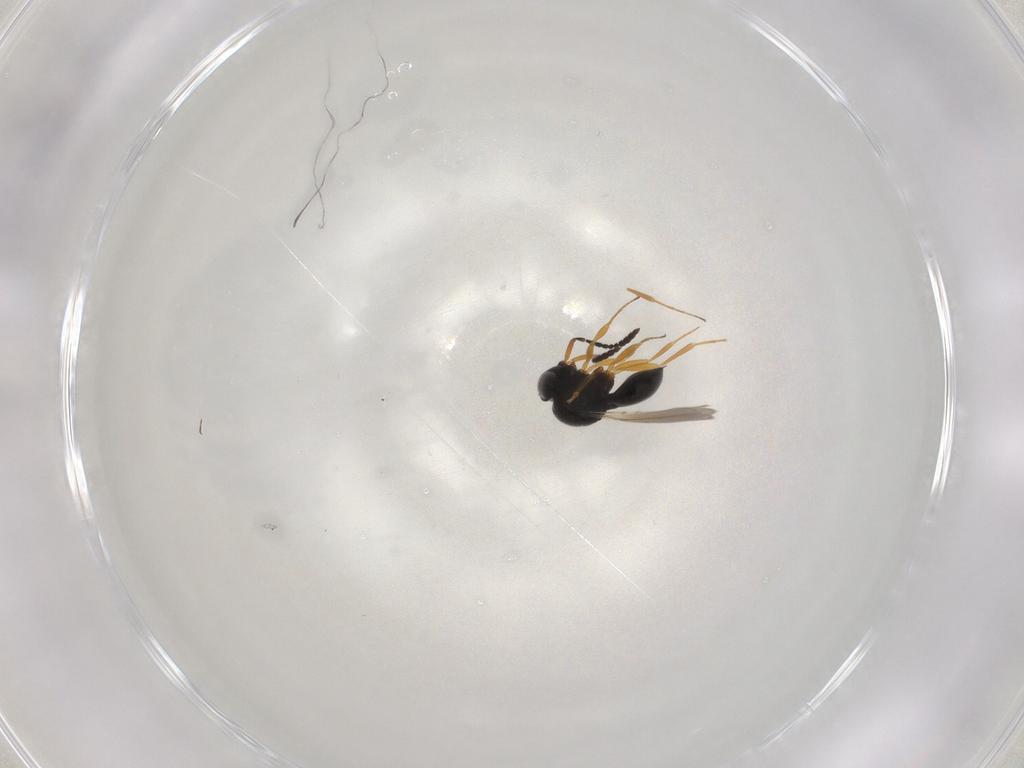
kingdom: Animalia
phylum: Arthropoda
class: Insecta
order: Hymenoptera
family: Scelionidae
